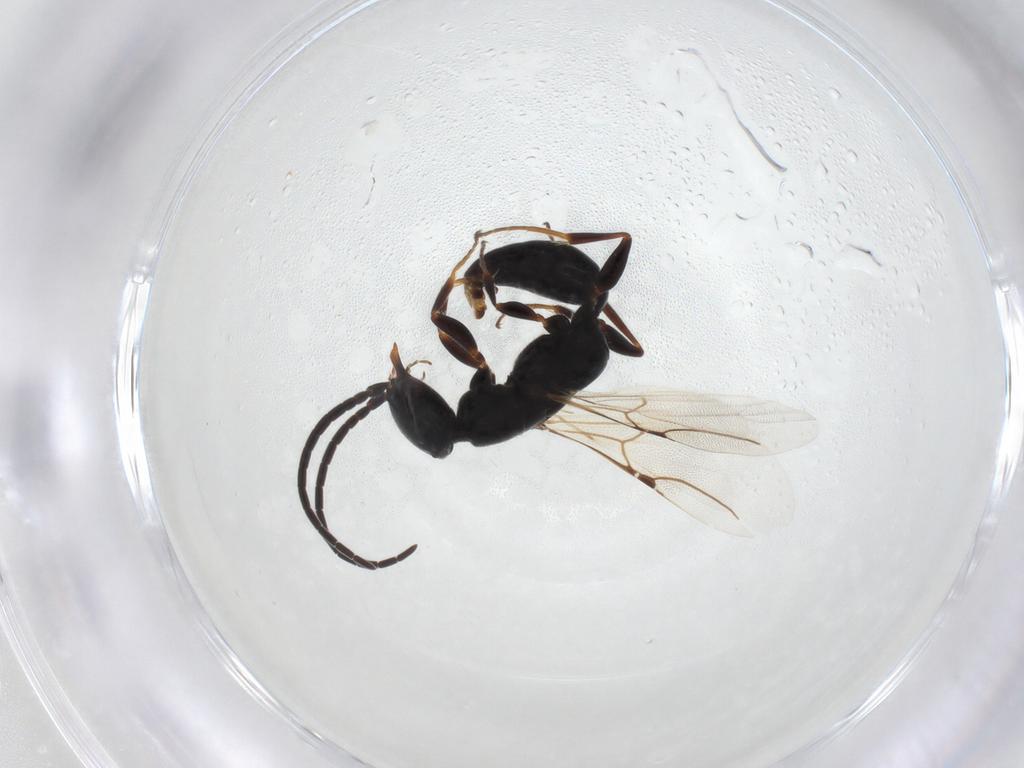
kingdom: Animalia
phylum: Arthropoda
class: Insecta
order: Hymenoptera
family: Bethylidae
